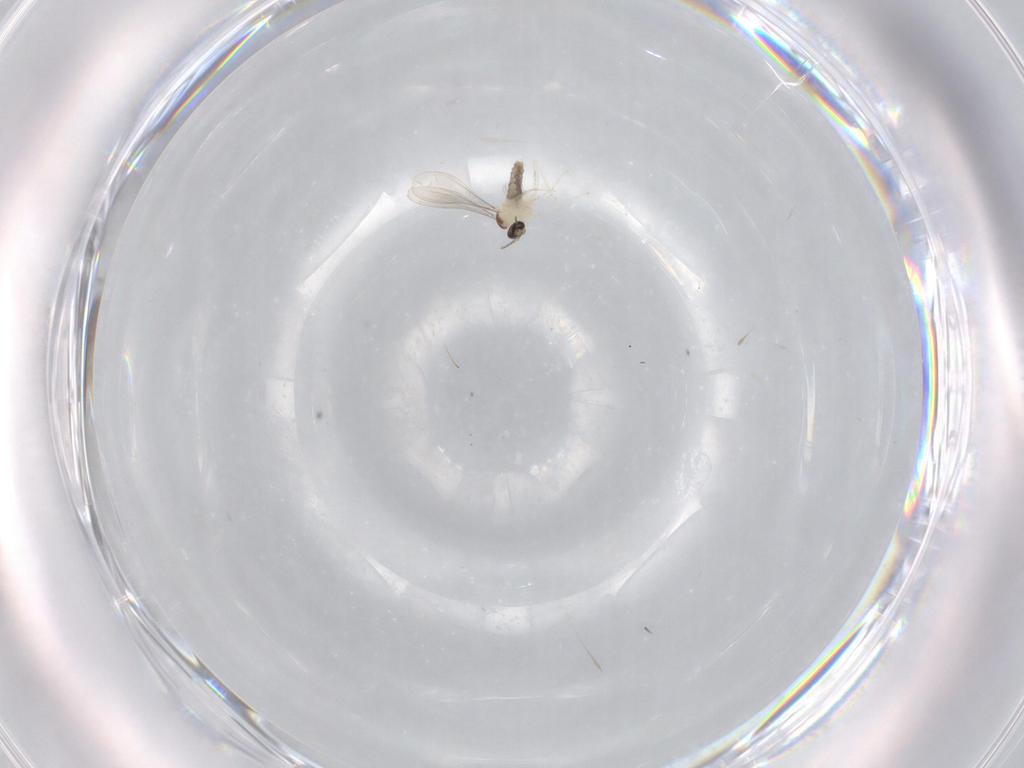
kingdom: Animalia
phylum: Arthropoda
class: Insecta
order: Diptera
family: Cecidomyiidae
